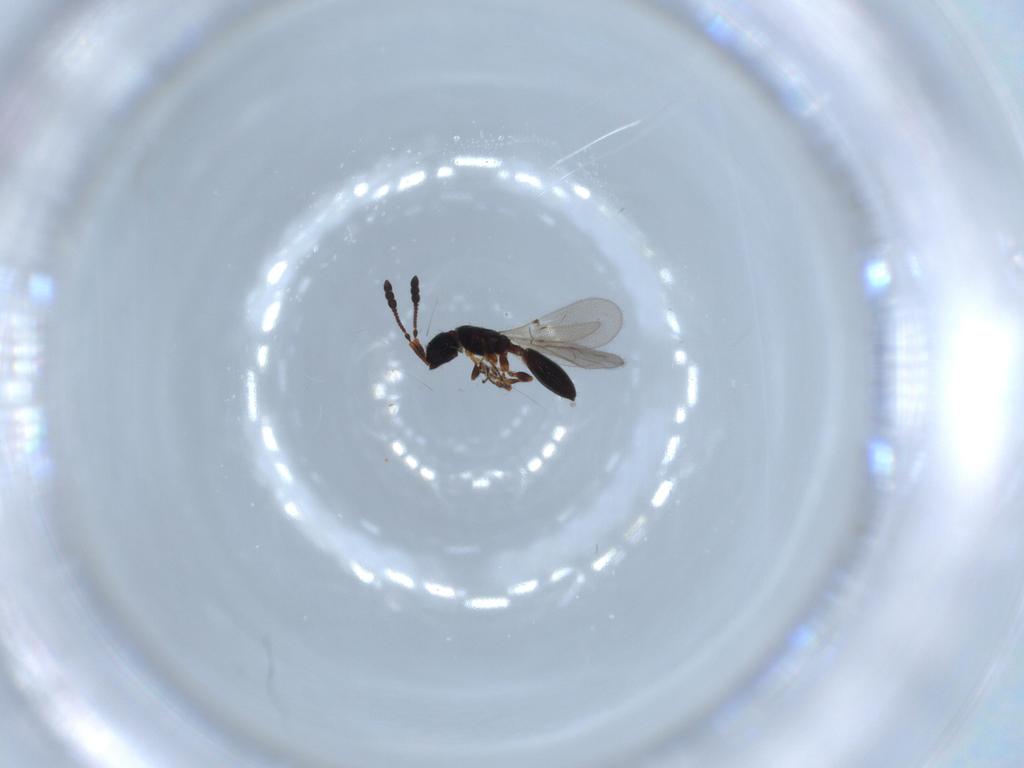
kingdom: Animalia
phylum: Arthropoda
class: Insecta
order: Hymenoptera
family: Diapriidae
